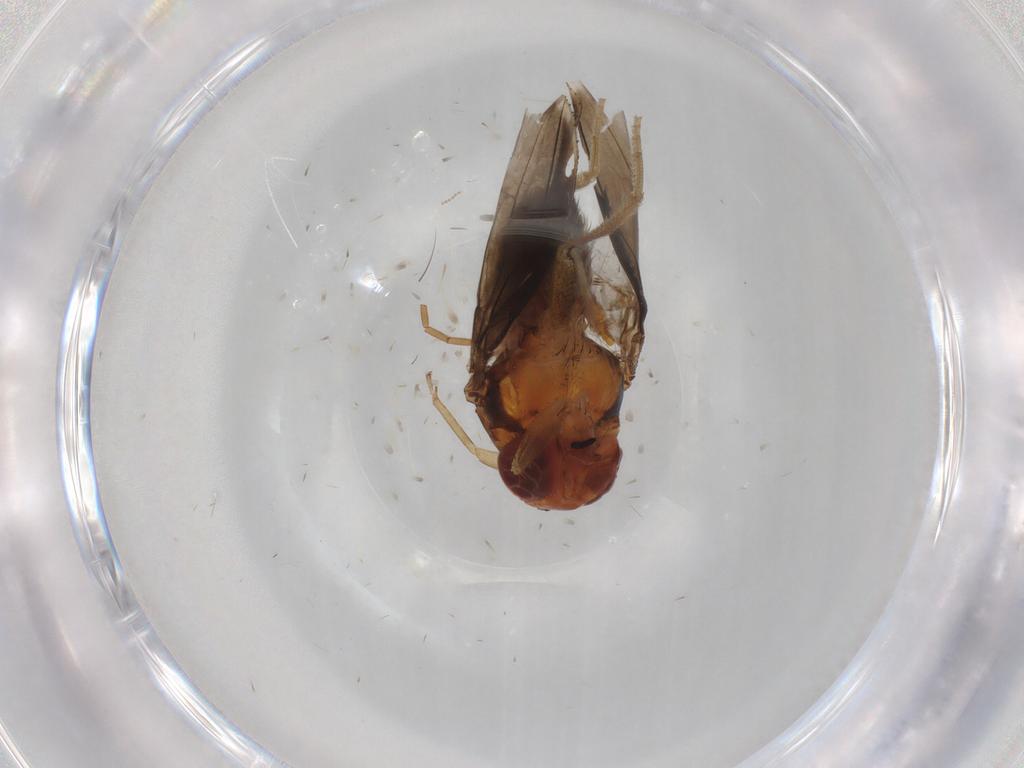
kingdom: Animalia
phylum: Arthropoda
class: Insecta
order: Diptera
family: Drosophilidae
